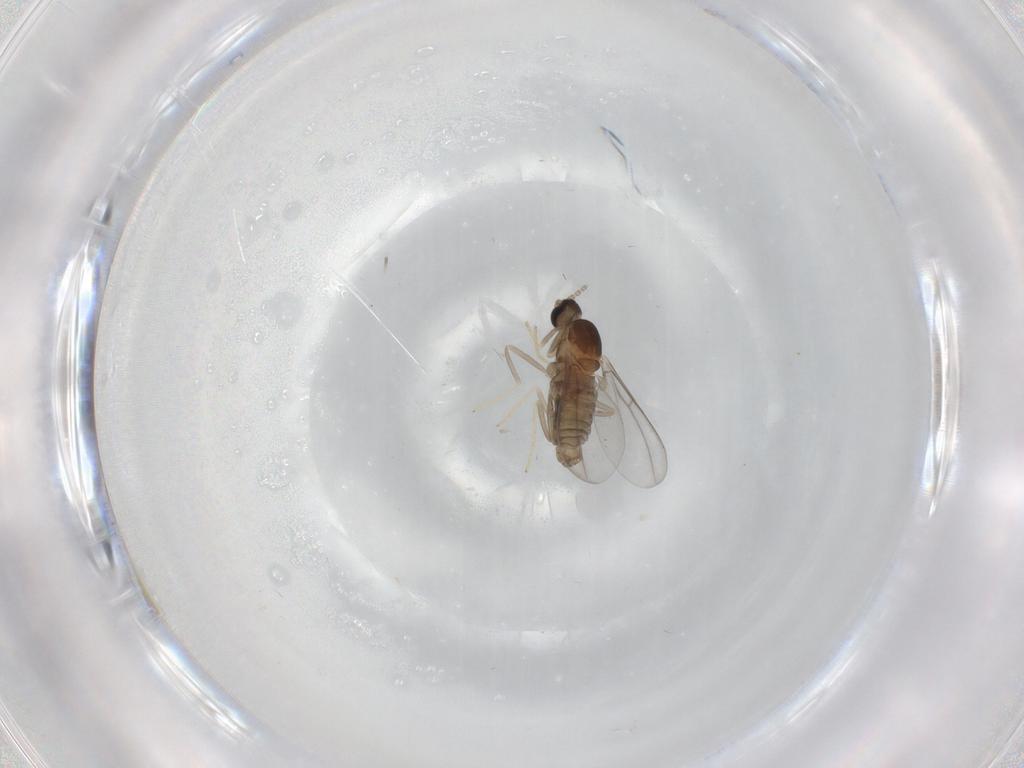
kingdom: Animalia
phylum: Arthropoda
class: Insecta
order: Diptera
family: Cecidomyiidae
